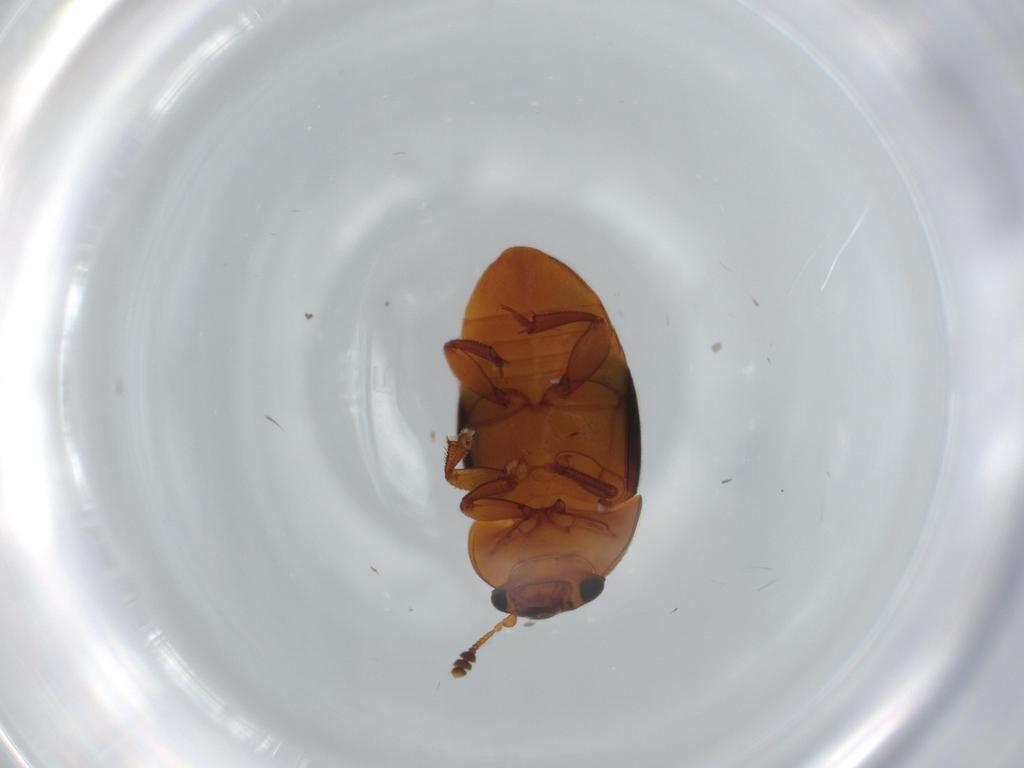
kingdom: Animalia
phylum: Arthropoda
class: Insecta
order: Coleoptera
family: Nitidulidae
